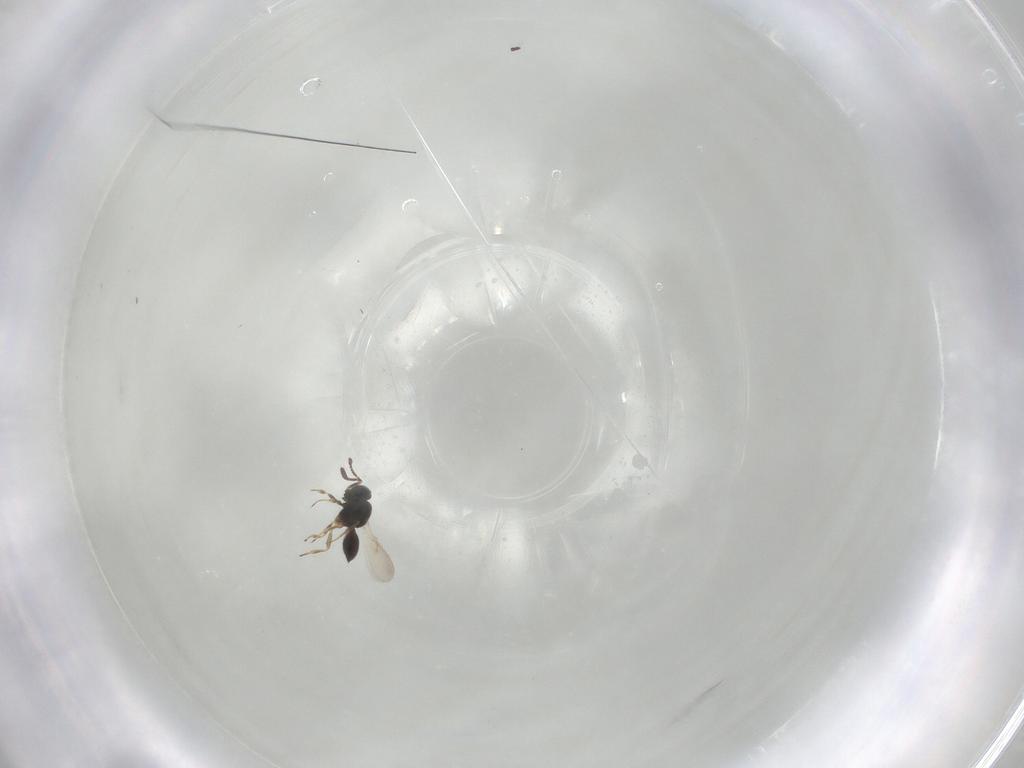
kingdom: Animalia
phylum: Arthropoda
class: Insecta
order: Hymenoptera
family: Scelionidae
